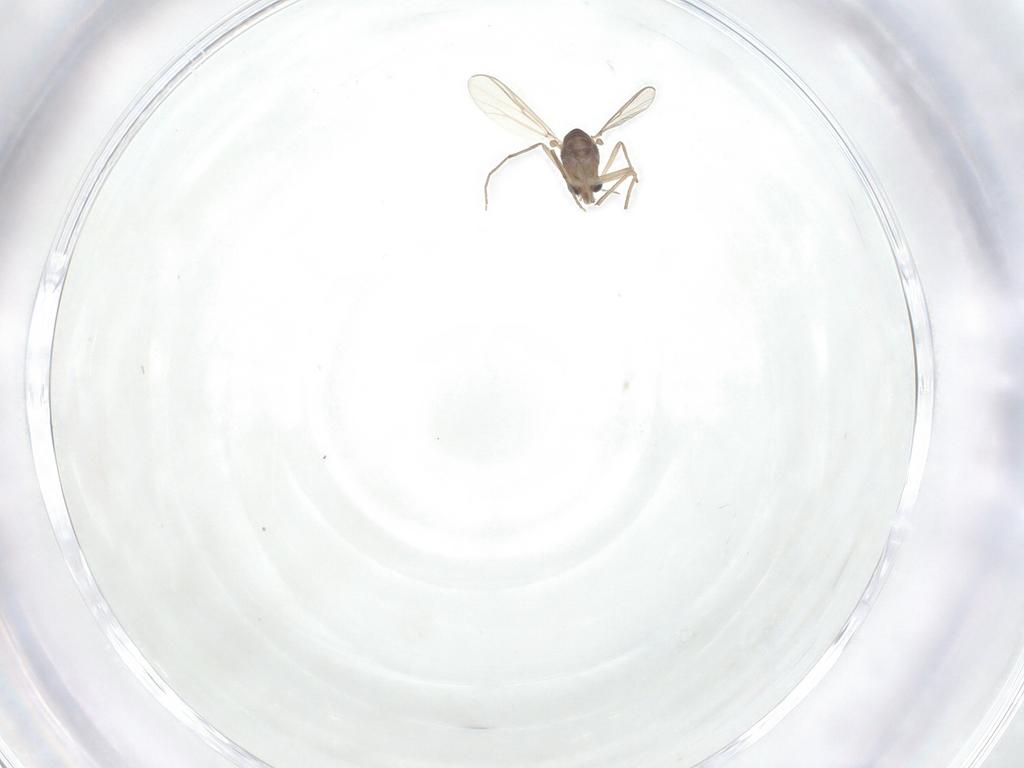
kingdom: Animalia
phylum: Arthropoda
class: Insecta
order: Diptera
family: Chironomidae
